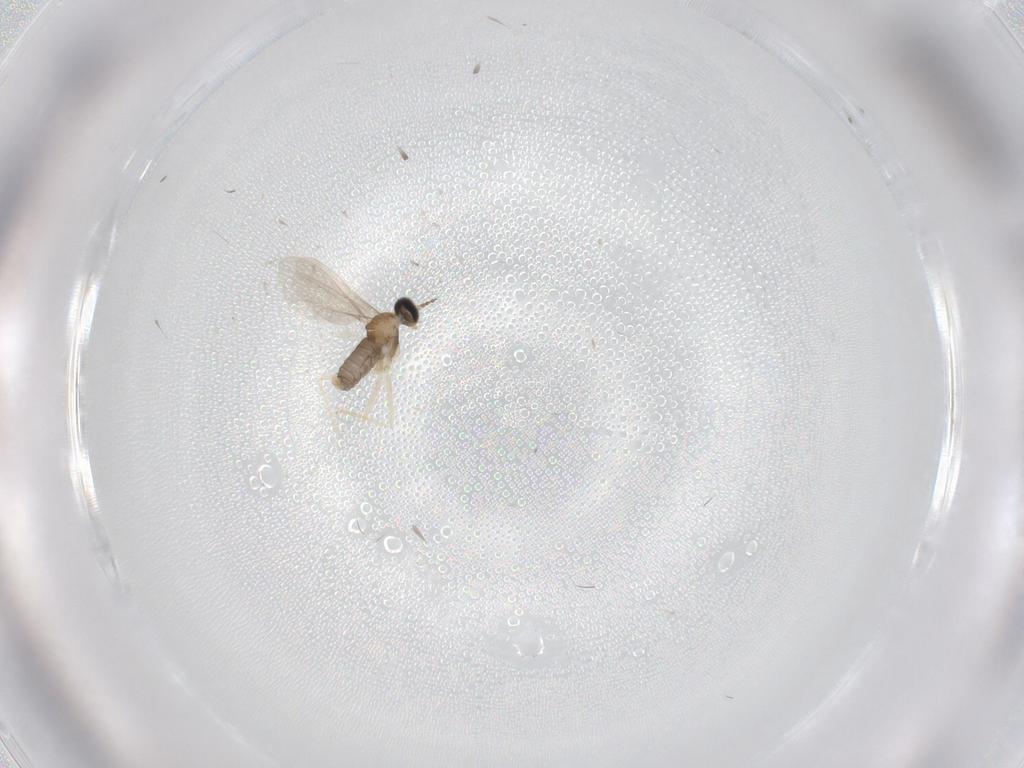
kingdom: Animalia
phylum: Arthropoda
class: Insecta
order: Diptera
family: Cecidomyiidae
